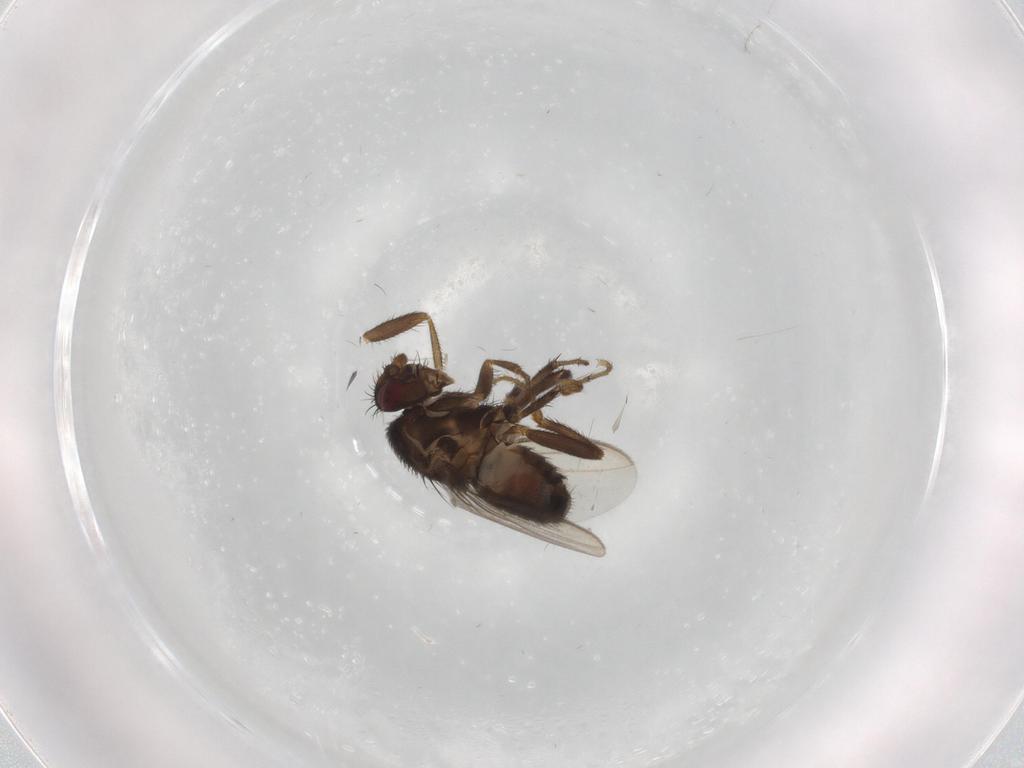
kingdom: Animalia
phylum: Arthropoda
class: Insecta
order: Diptera
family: Sphaeroceridae
